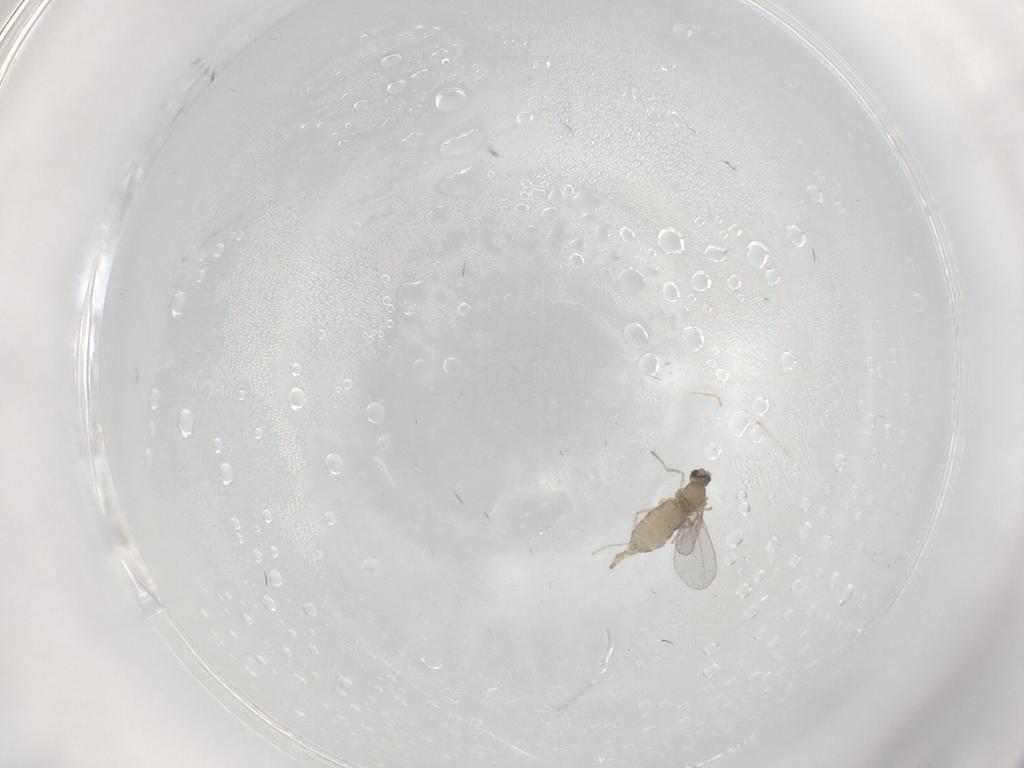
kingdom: Animalia
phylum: Arthropoda
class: Insecta
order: Diptera
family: Cecidomyiidae
